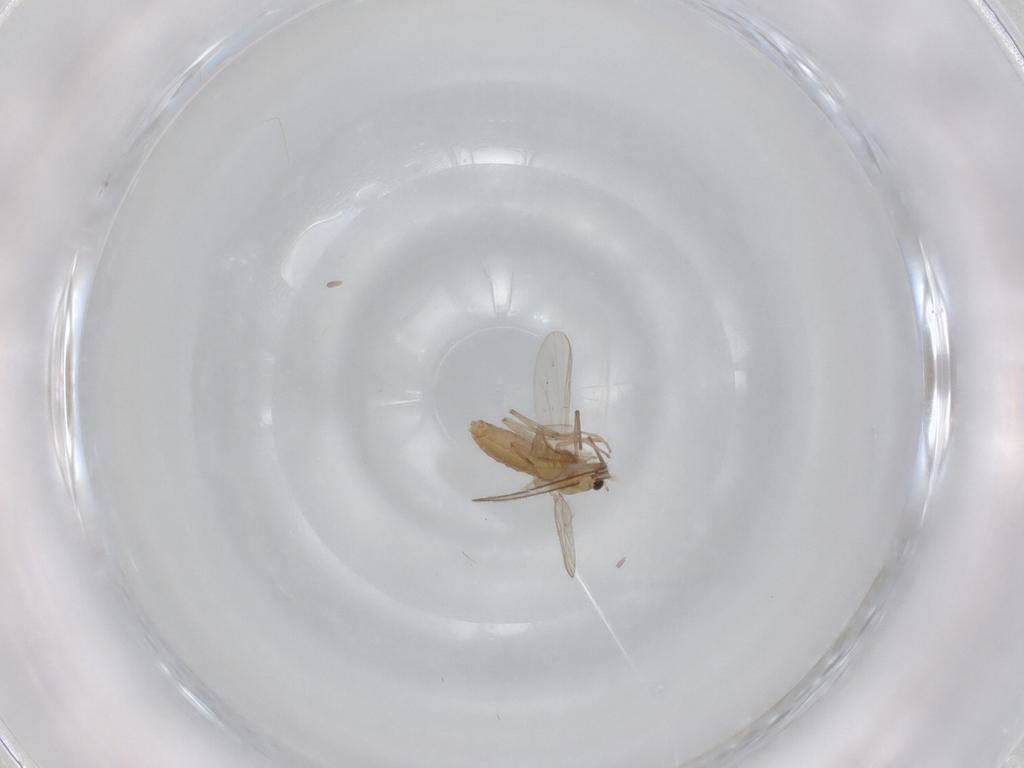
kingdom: Animalia
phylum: Arthropoda
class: Insecta
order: Diptera
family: Chironomidae
